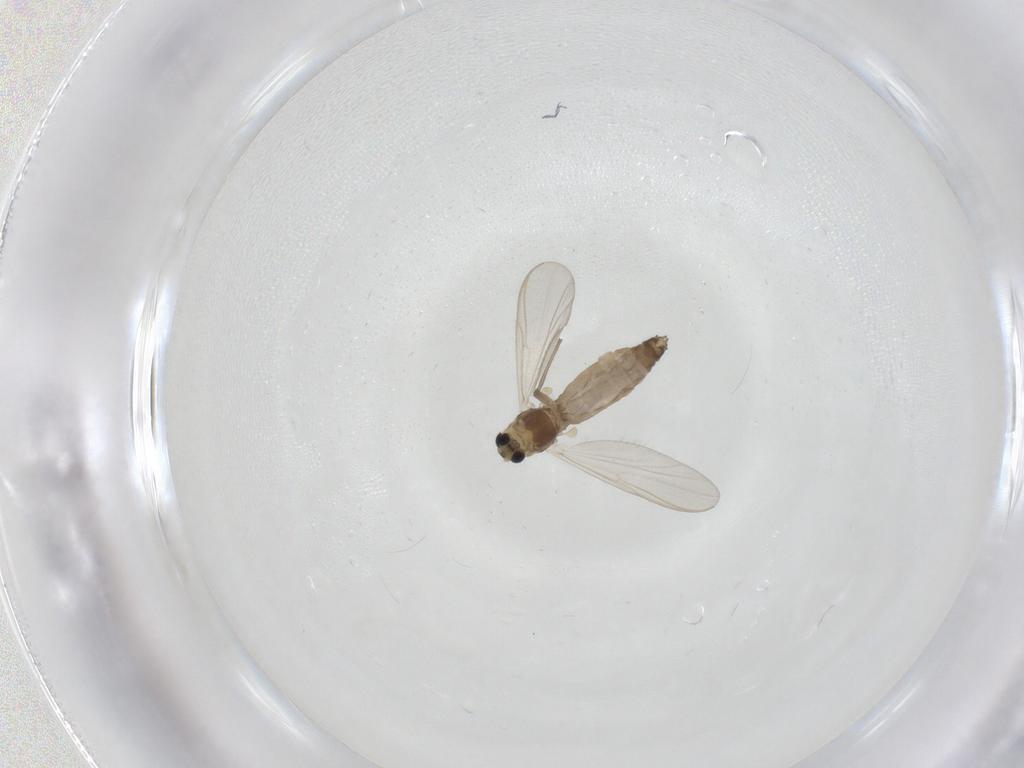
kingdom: Animalia
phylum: Arthropoda
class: Insecta
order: Diptera
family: Chironomidae
